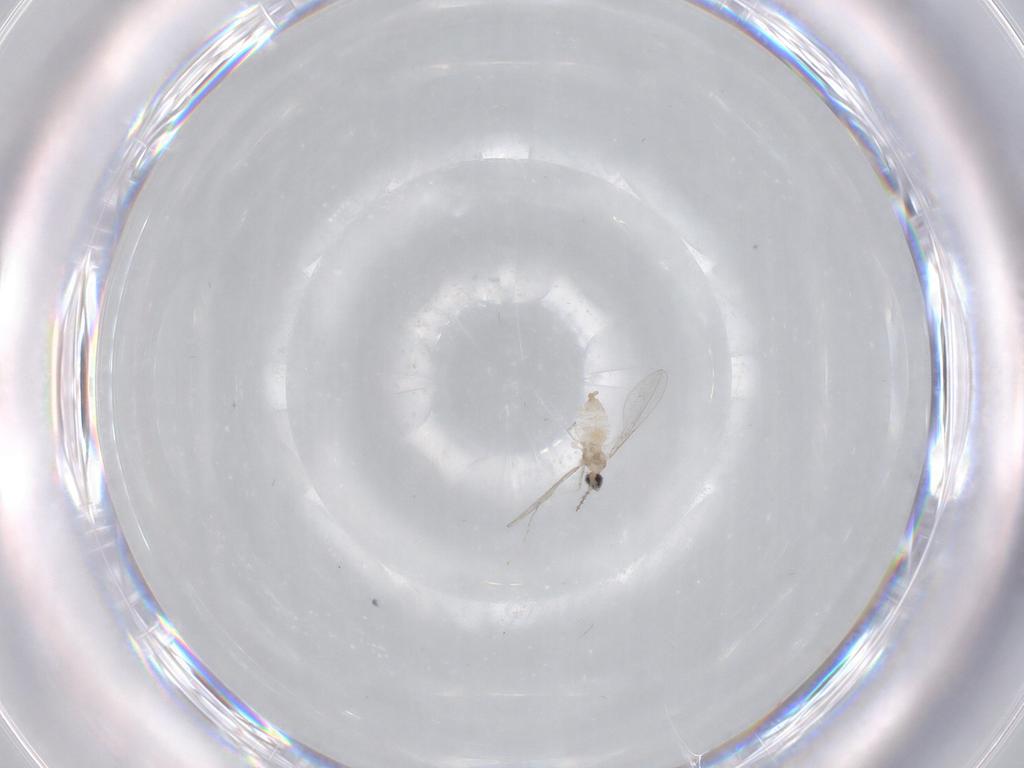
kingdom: Animalia
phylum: Arthropoda
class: Insecta
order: Diptera
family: Cecidomyiidae
